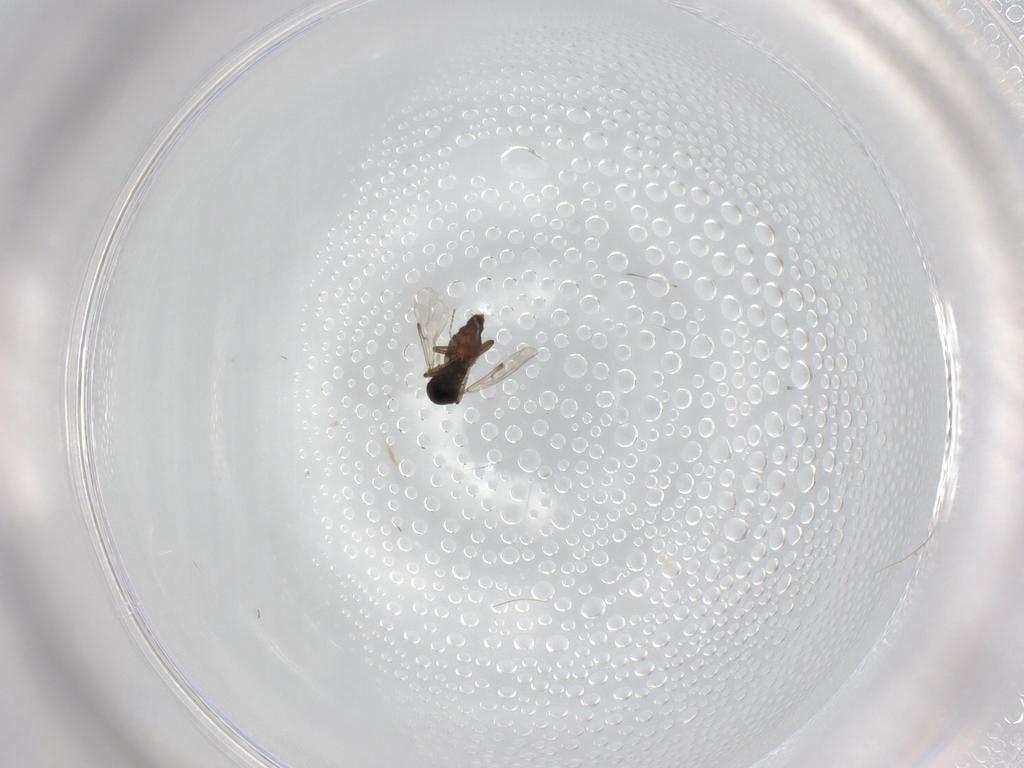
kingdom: Animalia
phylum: Arthropoda
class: Insecta
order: Diptera
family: Ceratopogonidae
